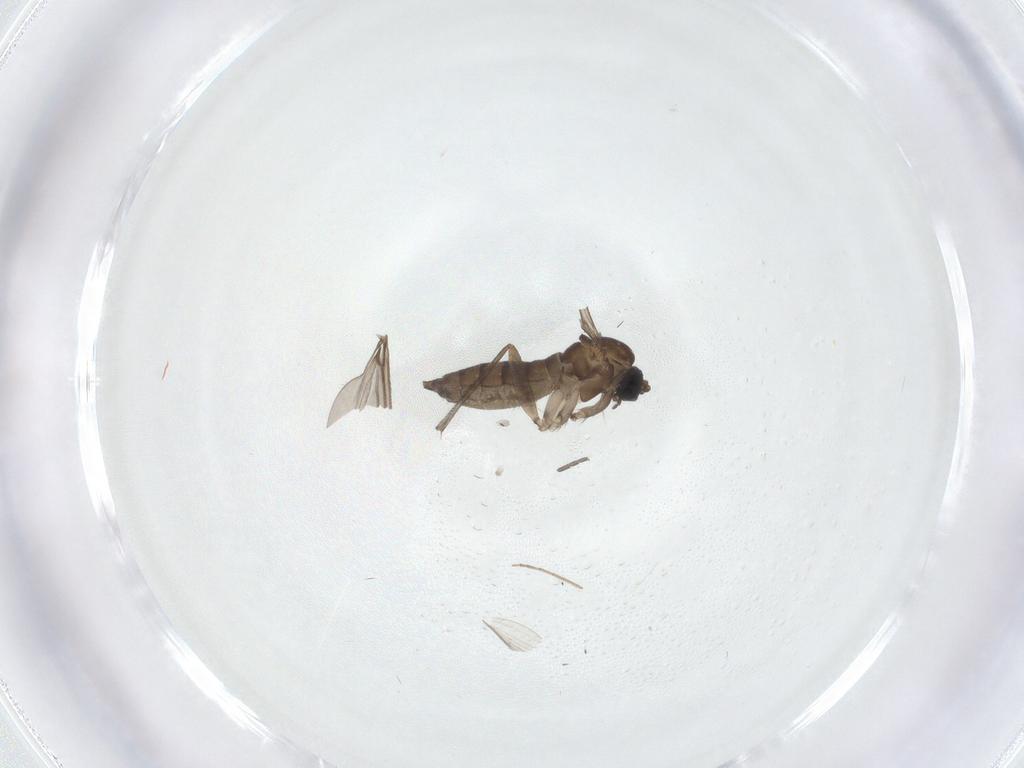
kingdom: Animalia
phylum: Arthropoda
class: Insecta
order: Diptera
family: Sciaridae
